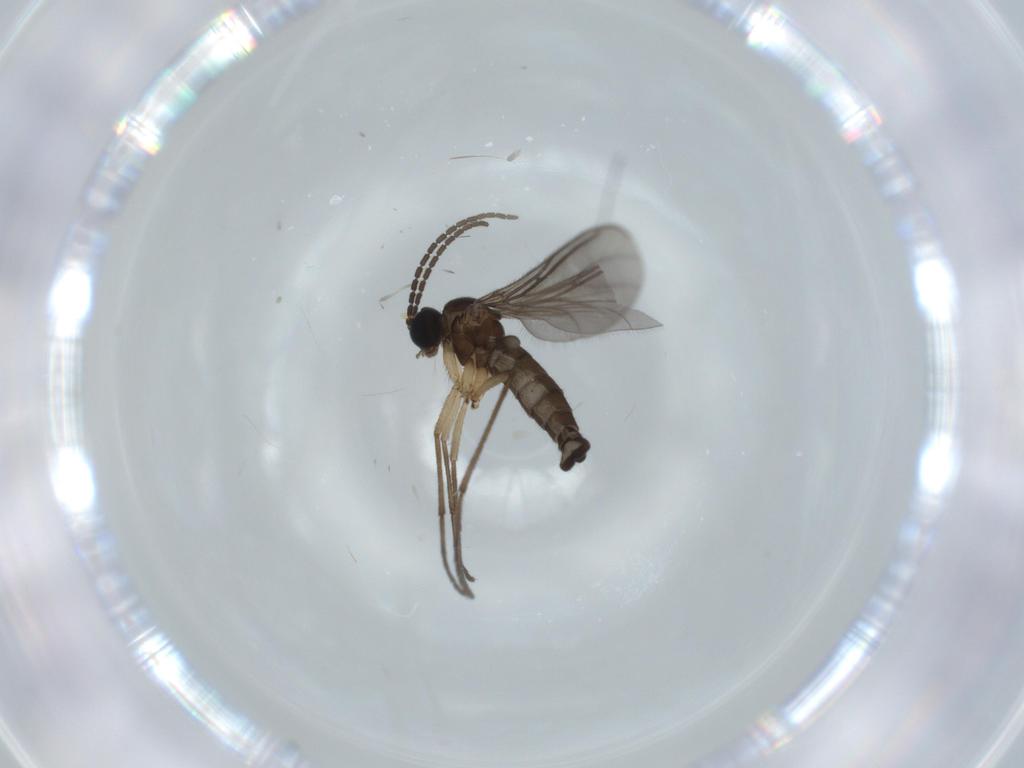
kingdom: Animalia
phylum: Arthropoda
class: Insecta
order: Diptera
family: Sciaridae
